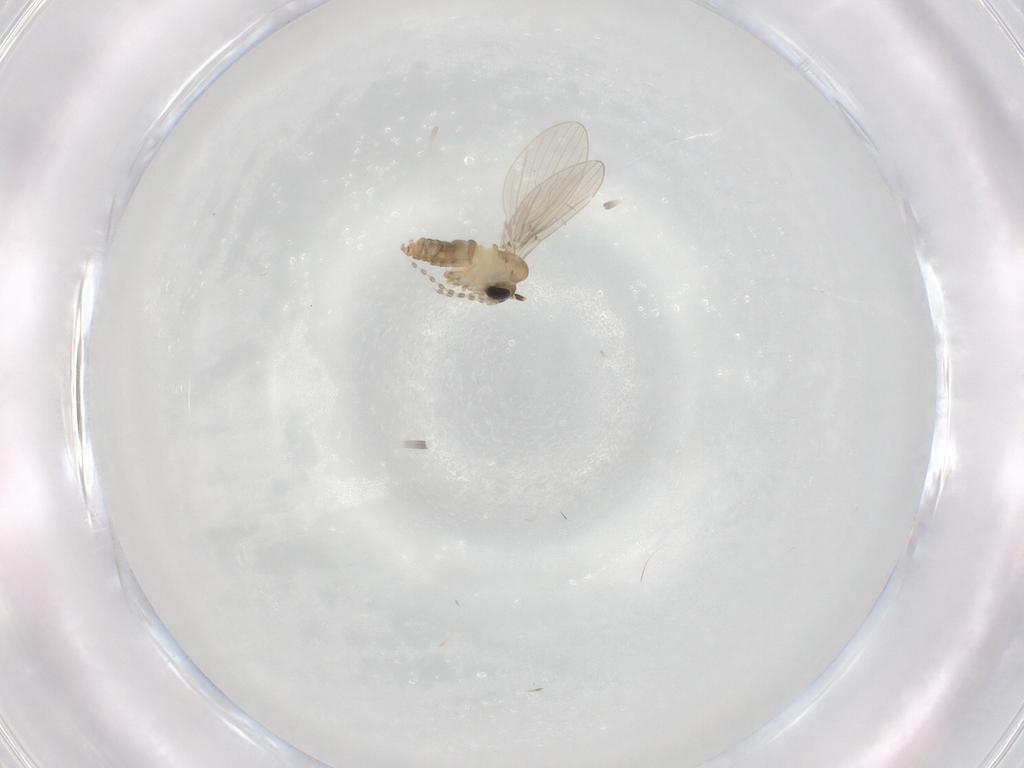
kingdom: Animalia
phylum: Arthropoda
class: Insecta
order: Diptera
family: Psychodidae
